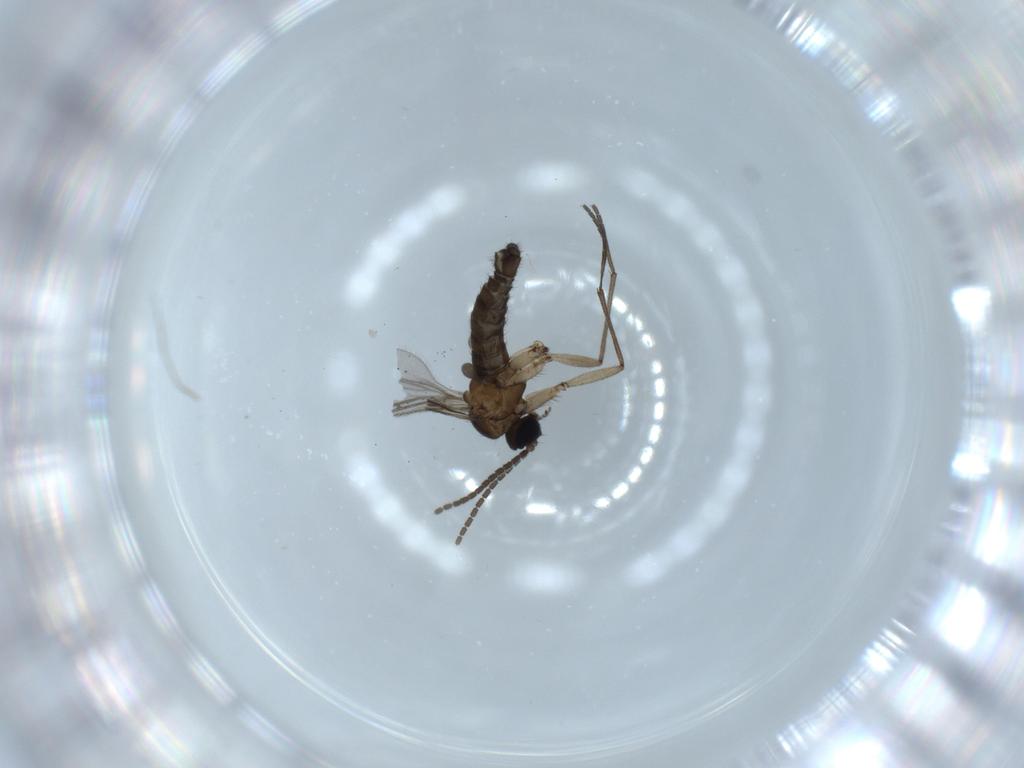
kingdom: Animalia
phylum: Arthropoda
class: Insecta
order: Diptera
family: Sciaridae
